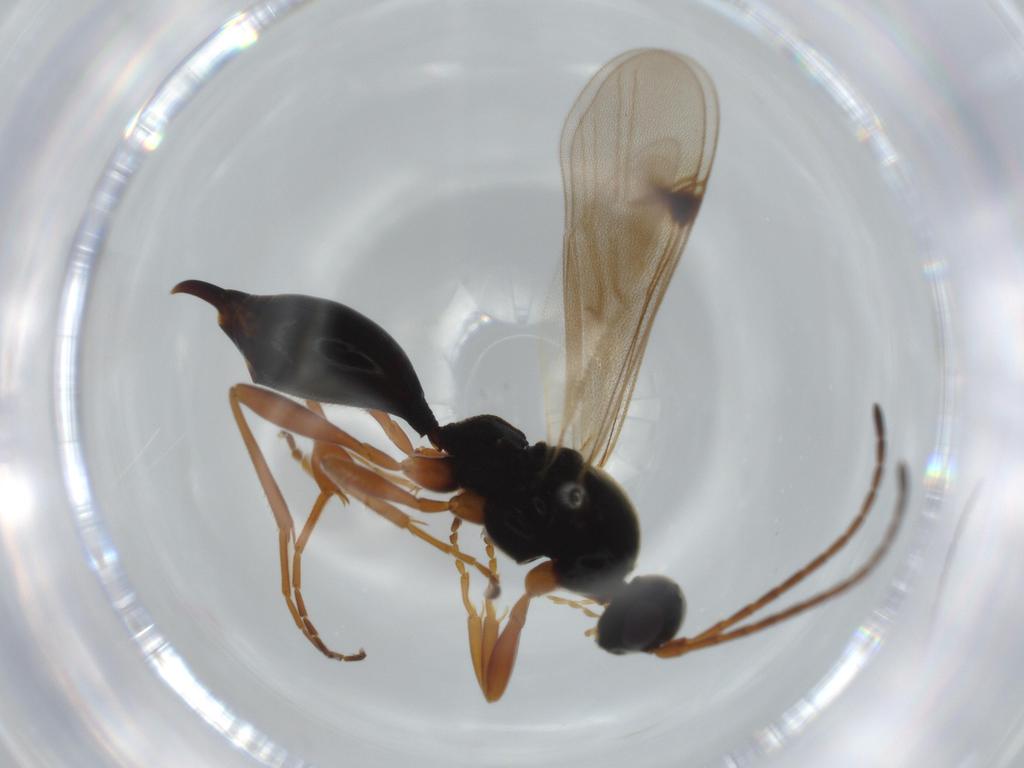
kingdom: Animalia
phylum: Arthropoda
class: Insecta
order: Hymenoptera
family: Proctotrupidae
